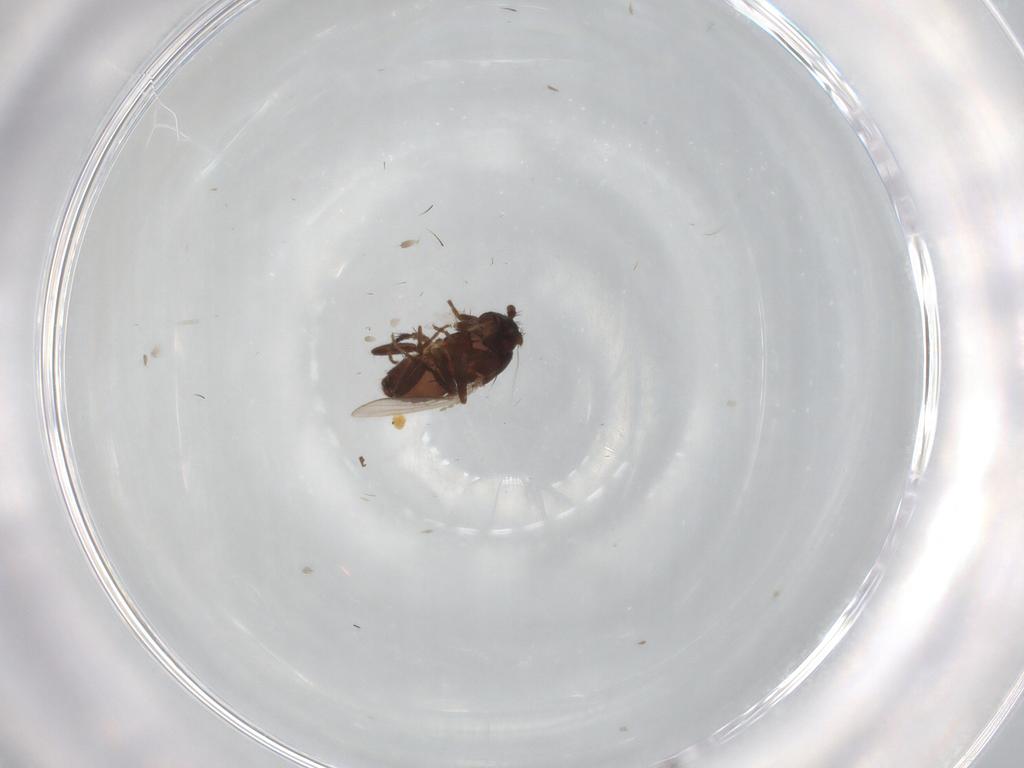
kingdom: Animalia
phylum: Arthropoda
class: Insecta
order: Diptera
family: Sphaeroceridae
